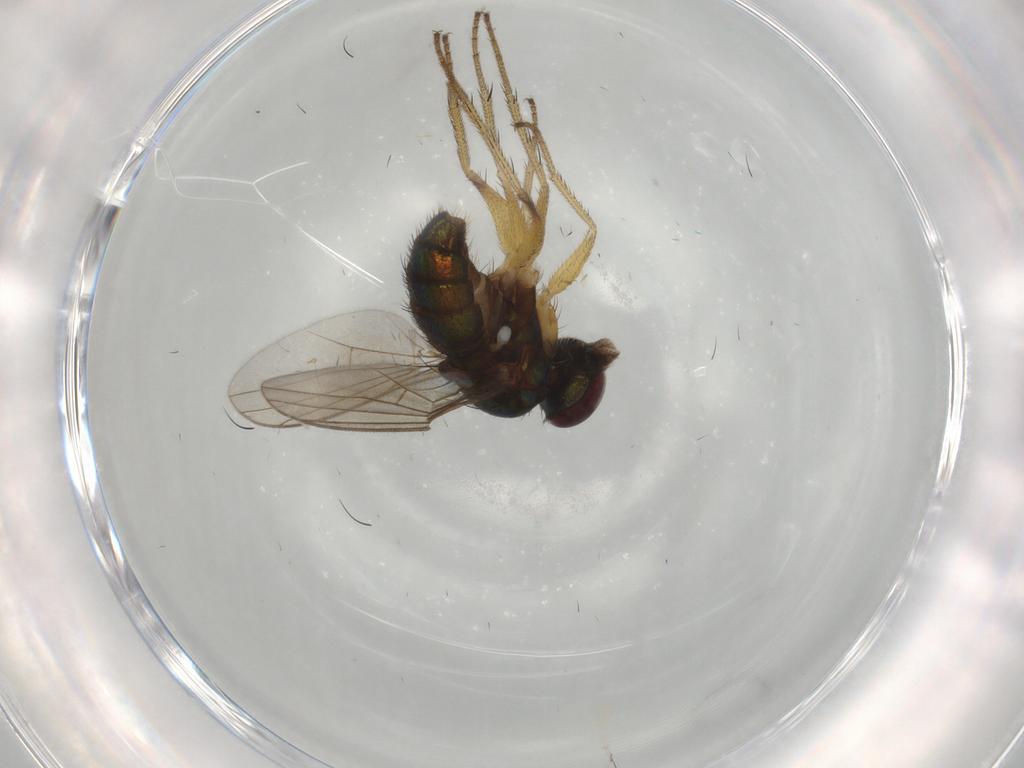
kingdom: Animalia
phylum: Arthropoda
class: Insecta
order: Diptera
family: Dolichopodidae
